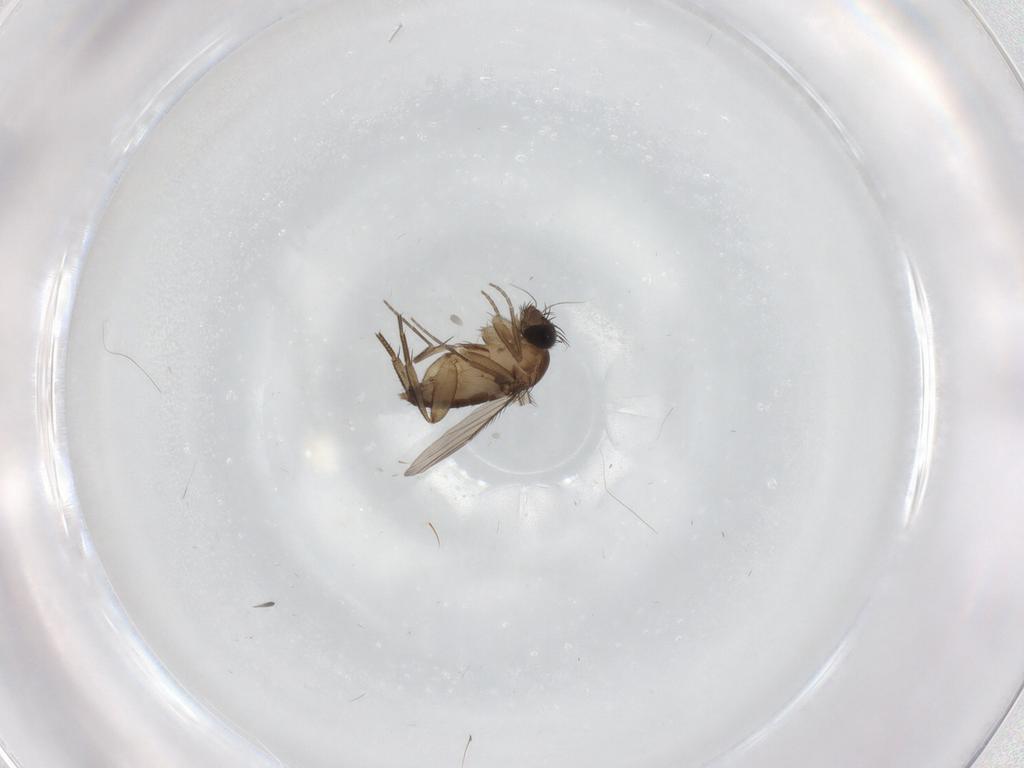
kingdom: Animalia
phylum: Arthropoda
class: Insecta
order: Diptera
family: Phoridae
